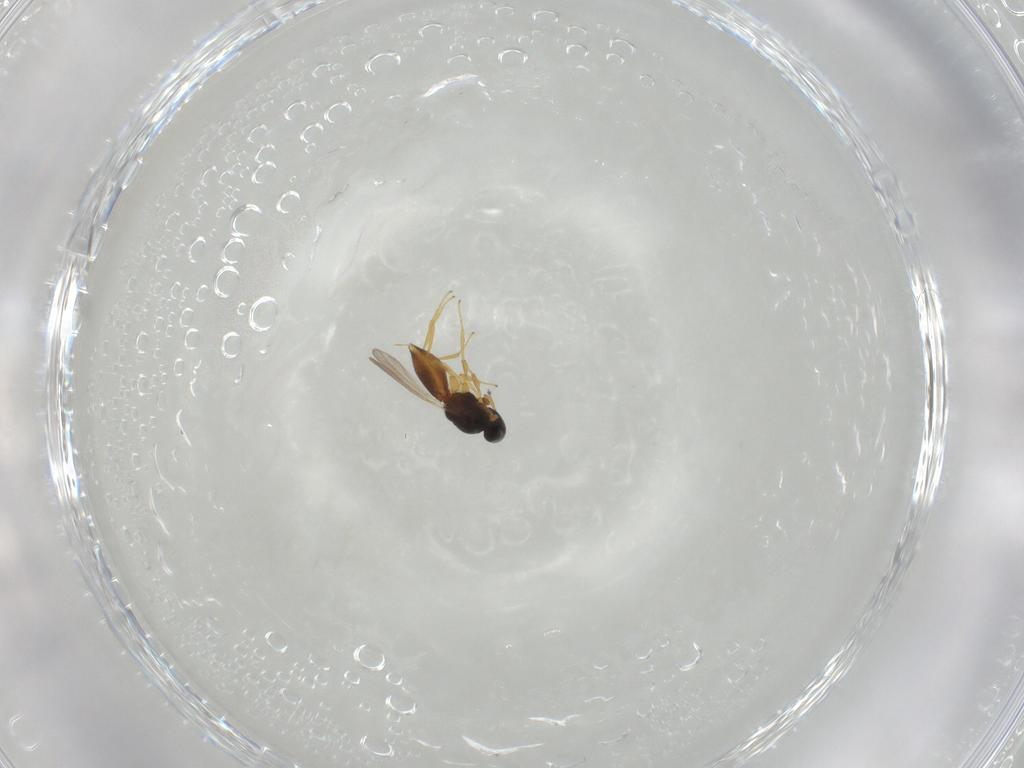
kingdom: Animalia
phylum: Arthropoda
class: Insecta
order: Hymenoptera
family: Platygastridae
